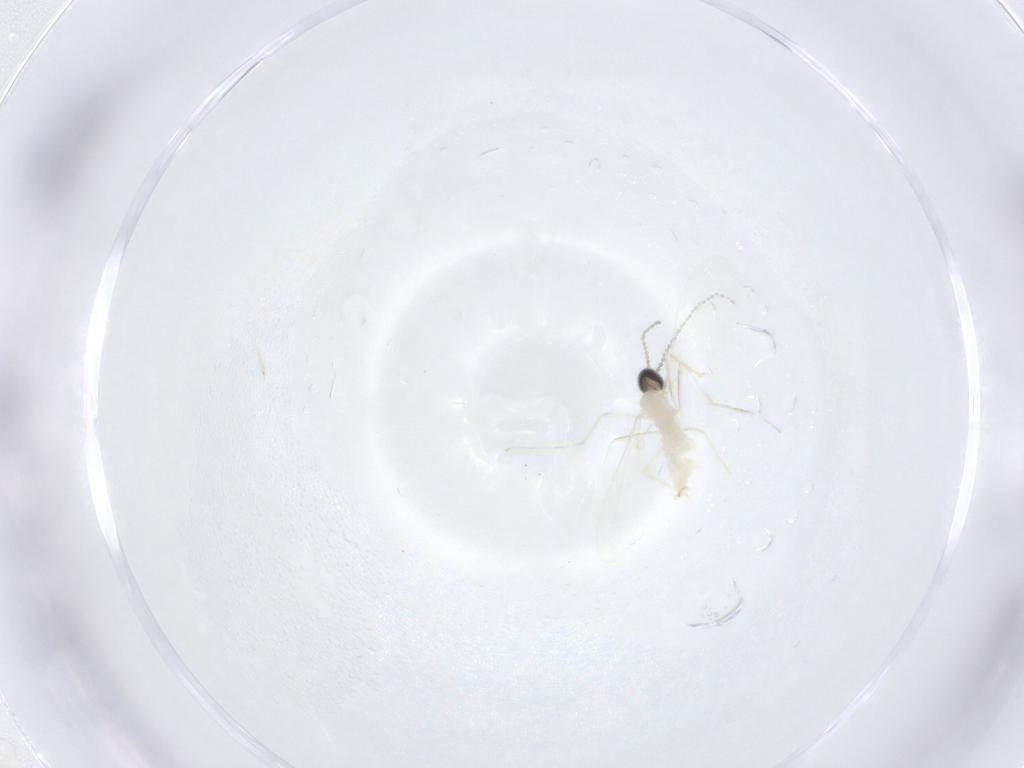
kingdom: Animalia
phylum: Arthropoda
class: Insecta
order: Diptera
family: Cecidomyiidae
